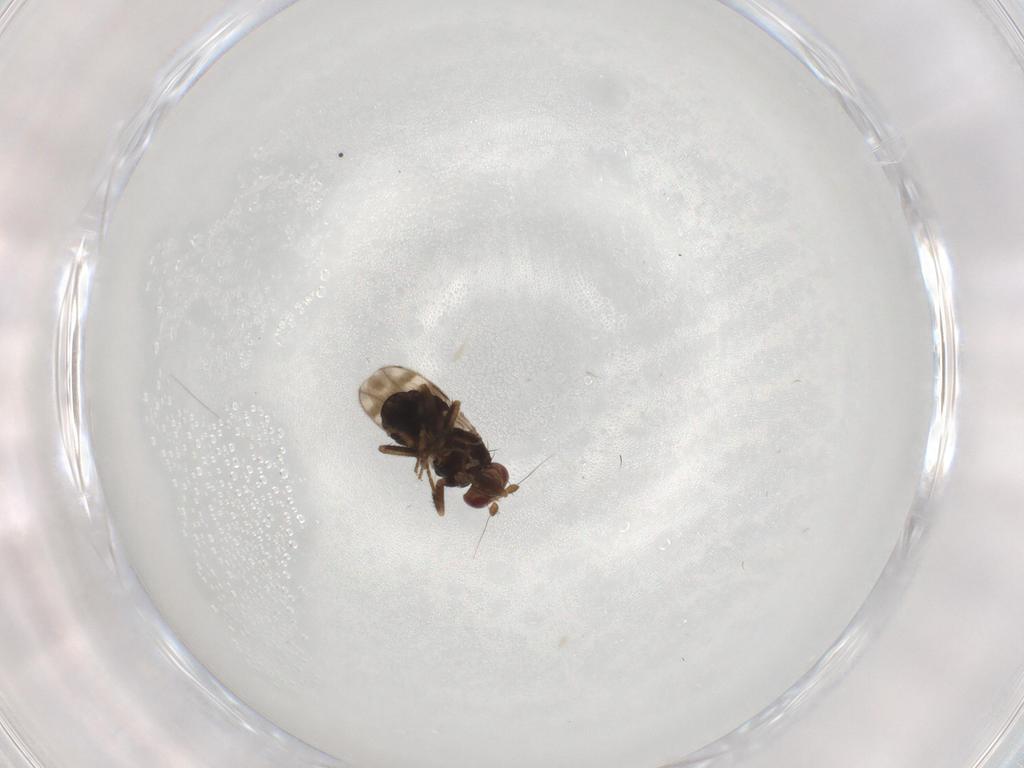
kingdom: Animalia
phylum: Arthropoda
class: Insecta
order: Diptera
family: Sphaeroceridae
